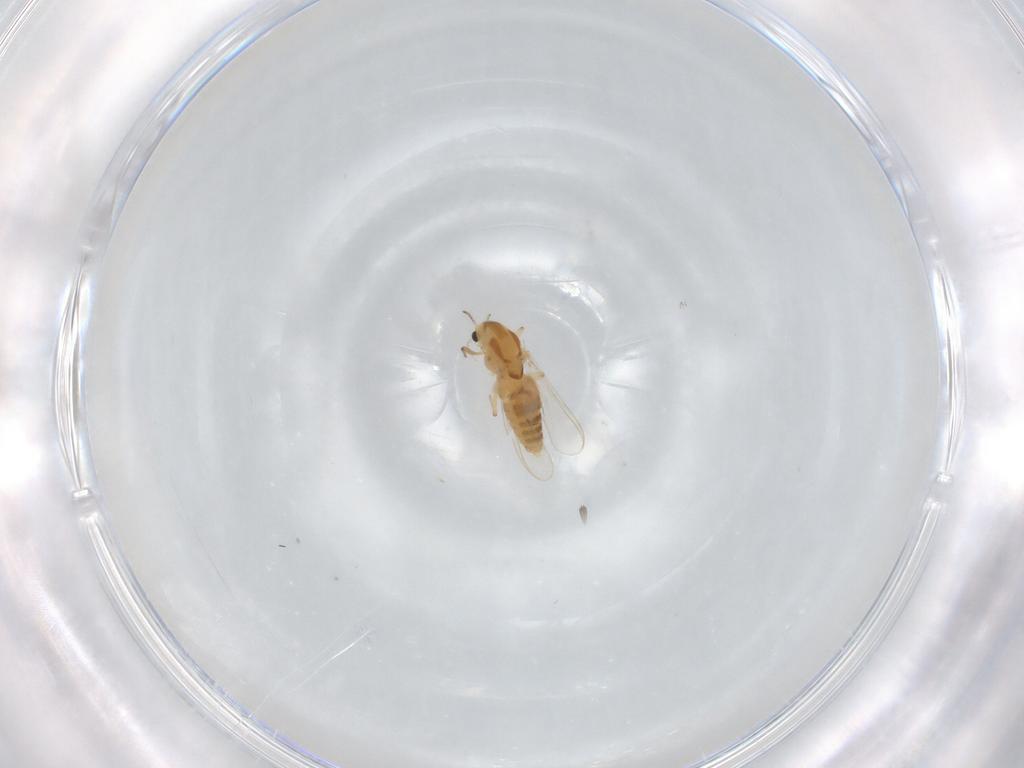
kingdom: Animalia
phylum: Arthropoda
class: Insecta
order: Diptera
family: Chironomidae
